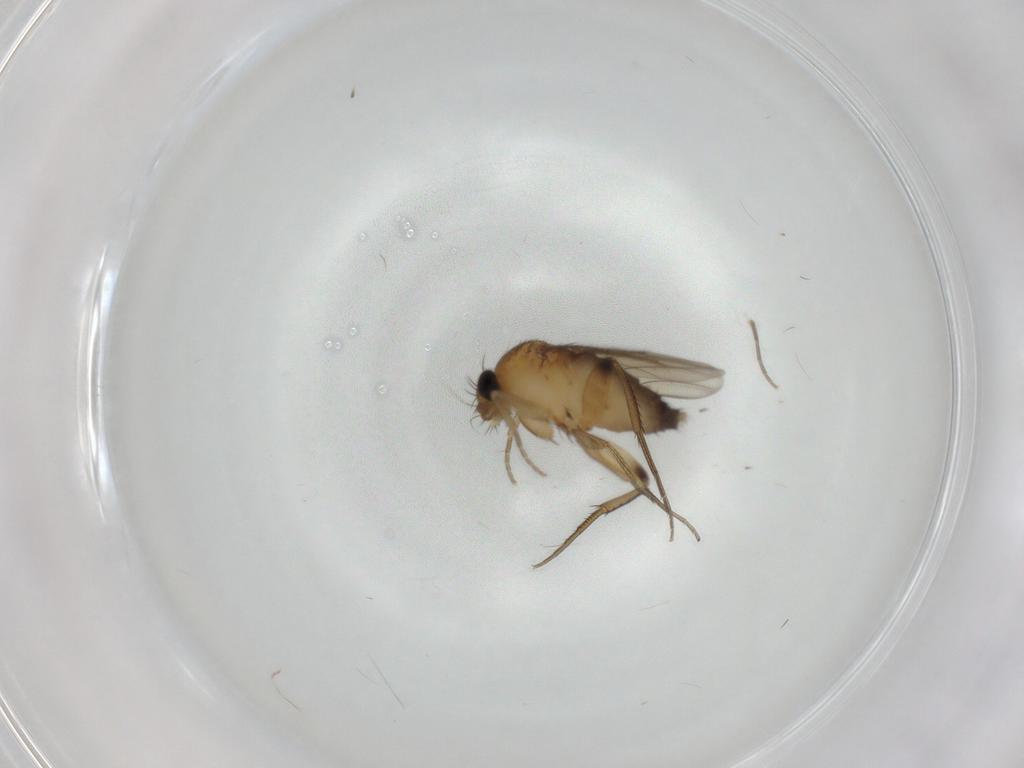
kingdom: Animalia
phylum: Arthropoda
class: Insecta
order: Diptera
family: Phoridae
